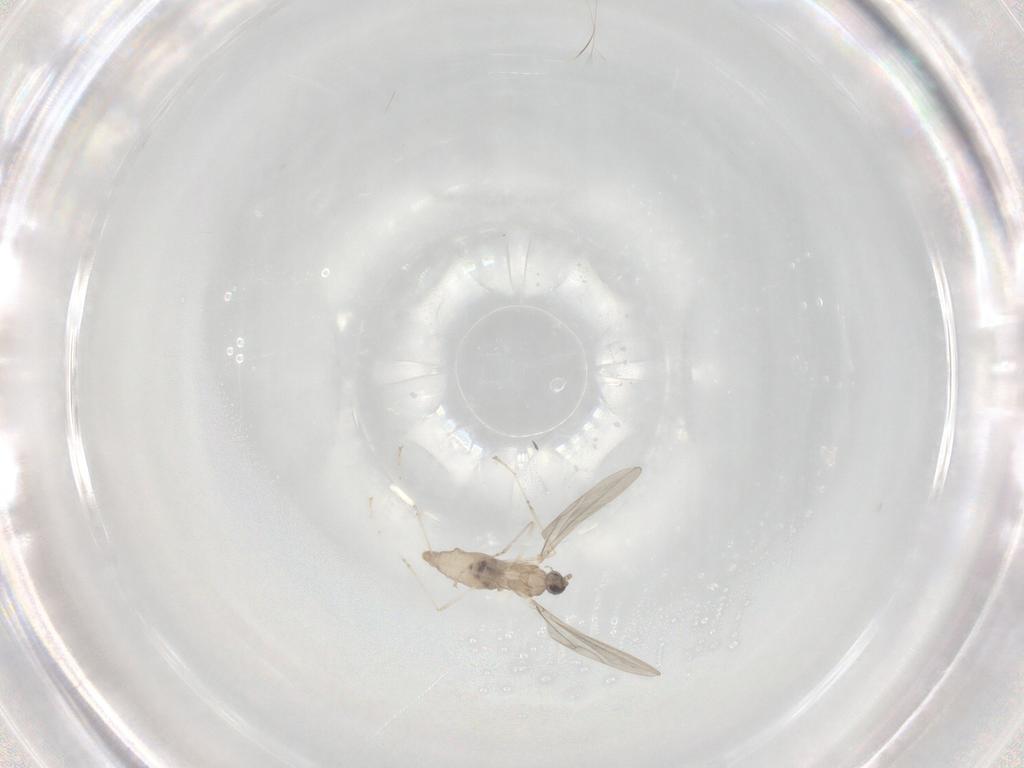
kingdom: Animalia
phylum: Arthropoda
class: Insecta
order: Diptera
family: Cecidomyiidae
